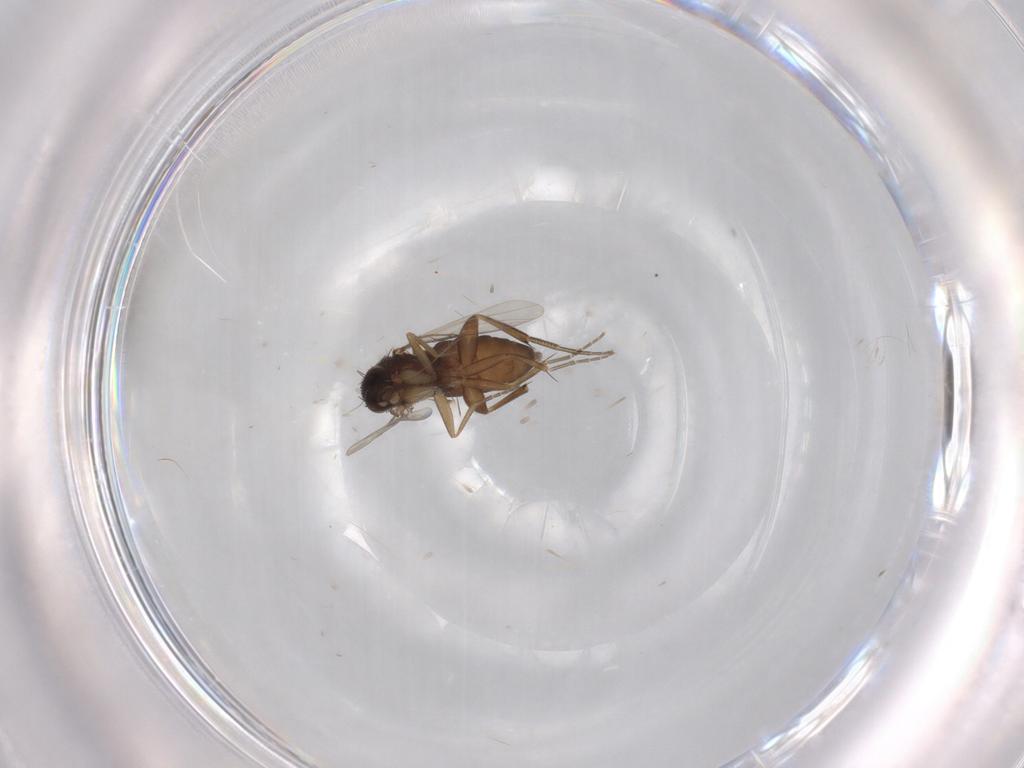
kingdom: Animalia
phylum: Arthropoda
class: Insecta
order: Diptera
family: Phoridae
